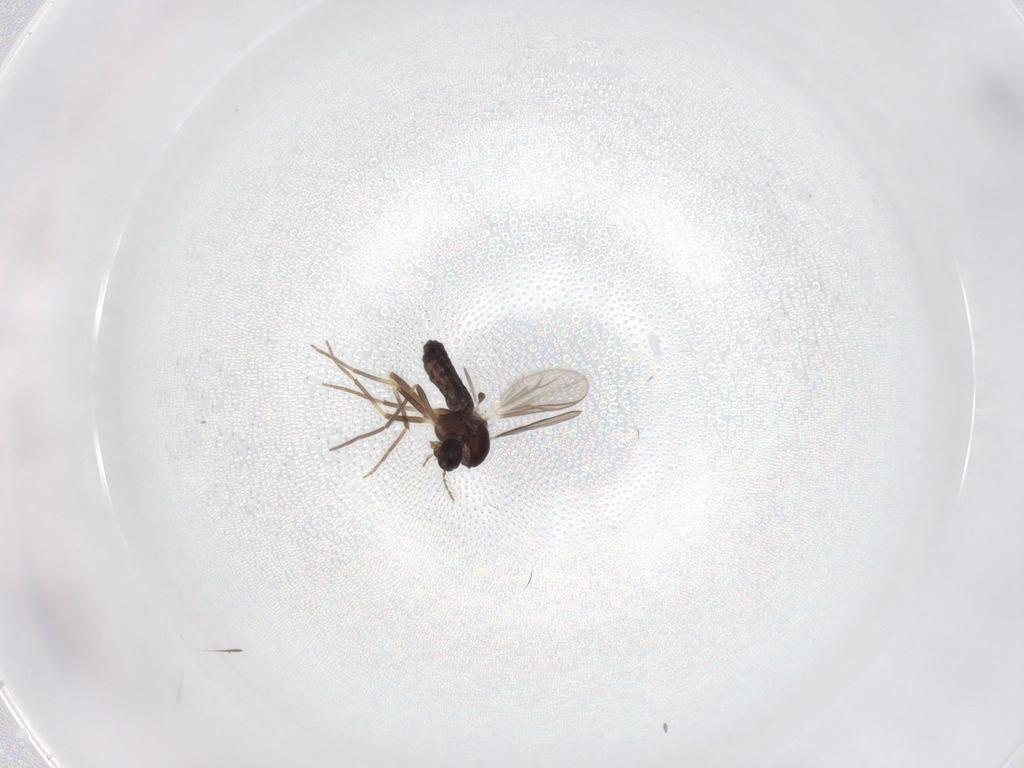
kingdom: Animalia
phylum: Arthropoda
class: Insecta
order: Diptera
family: Chironomidae
